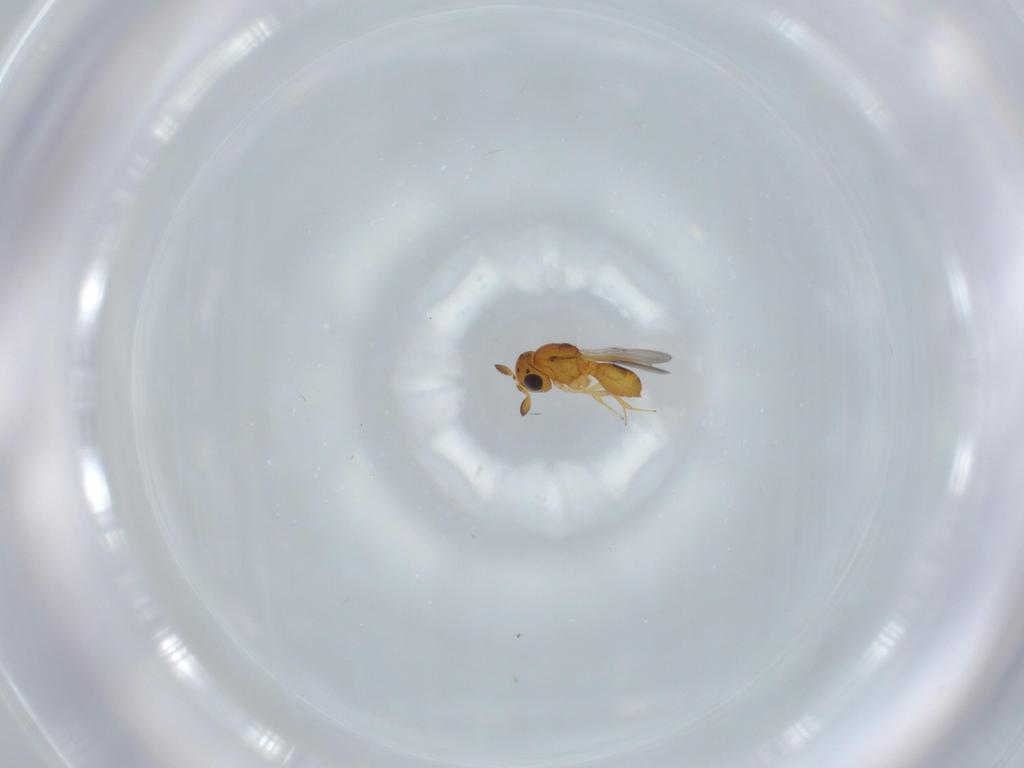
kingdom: Animalia
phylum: Arthropoda
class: Insecta
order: Hymenoptera
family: Scelionidae
